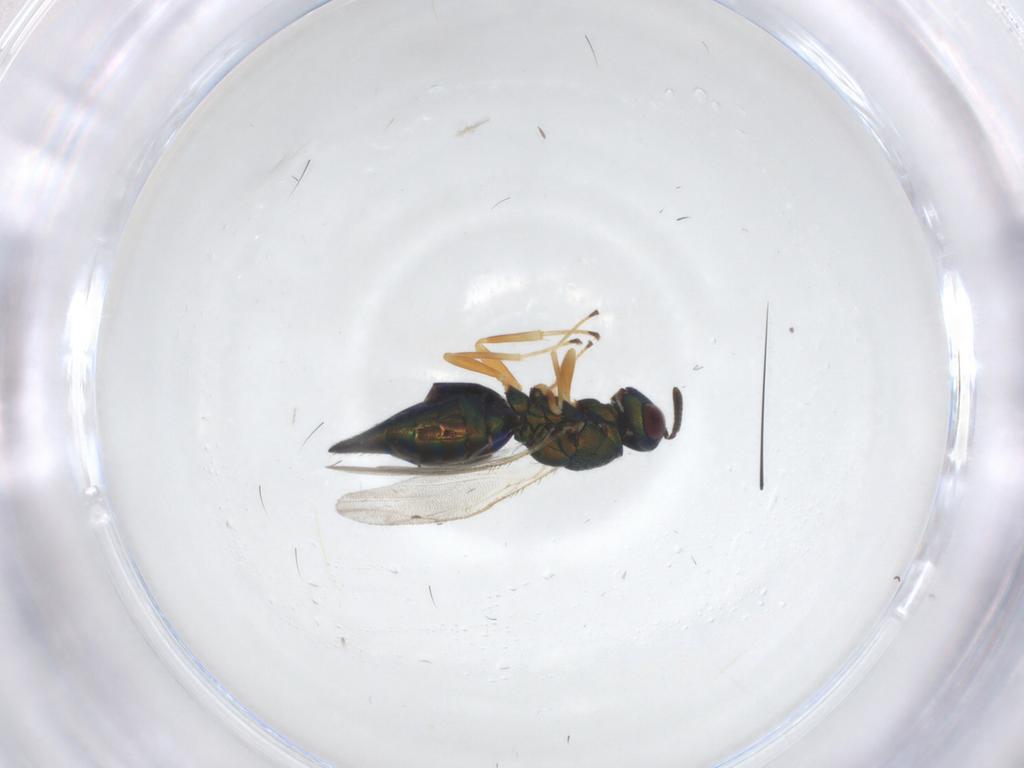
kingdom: Animalia
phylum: Arthropoda
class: Insecta
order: Hymenoptera
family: Pteromalidae
